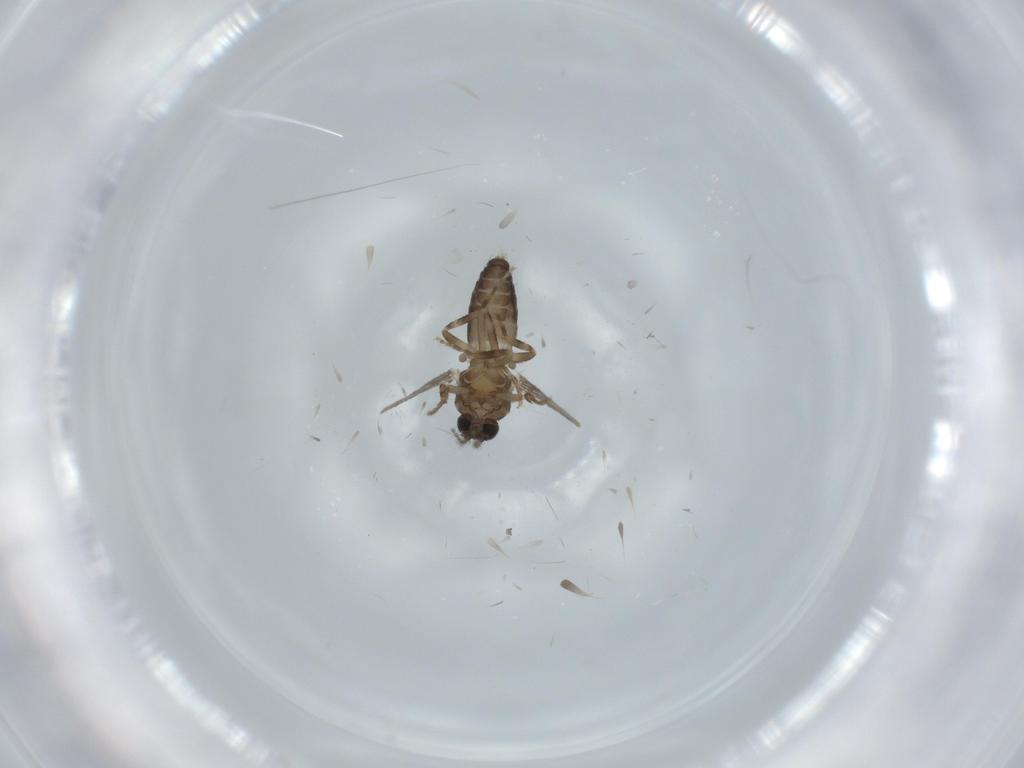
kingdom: Animalia
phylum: Arthropoda
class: Insecta
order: Diptera
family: Ceratopogonidae
